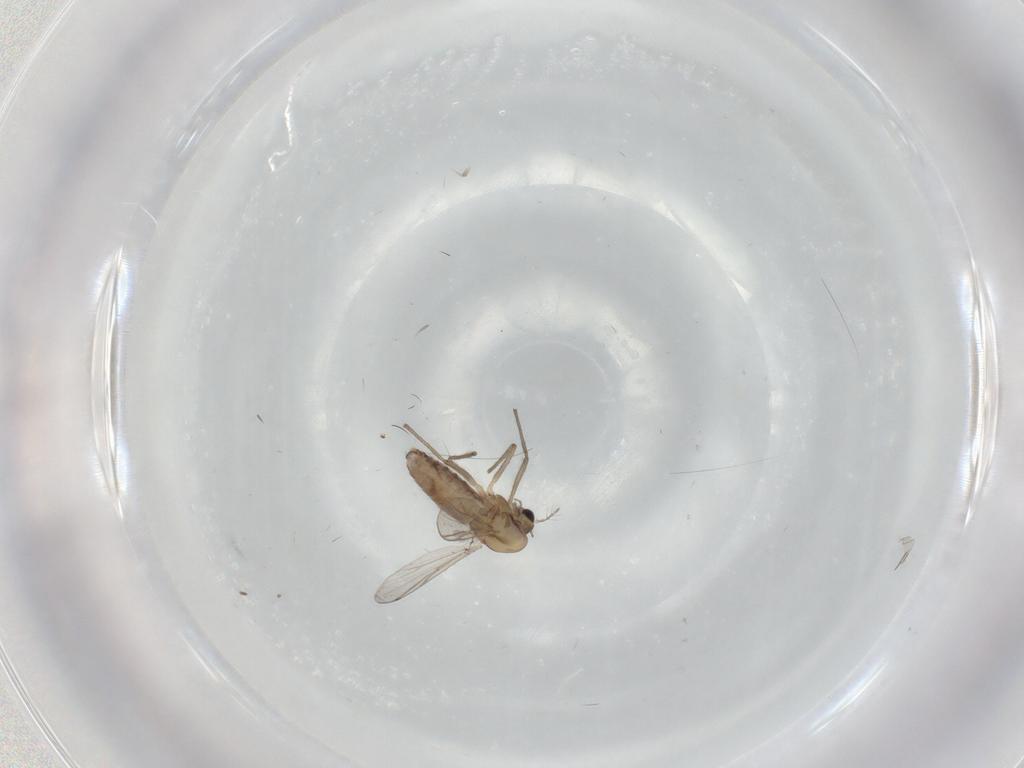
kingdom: Animalia
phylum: Arthropoda
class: Insecta
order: Diptera
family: Chironomidae
